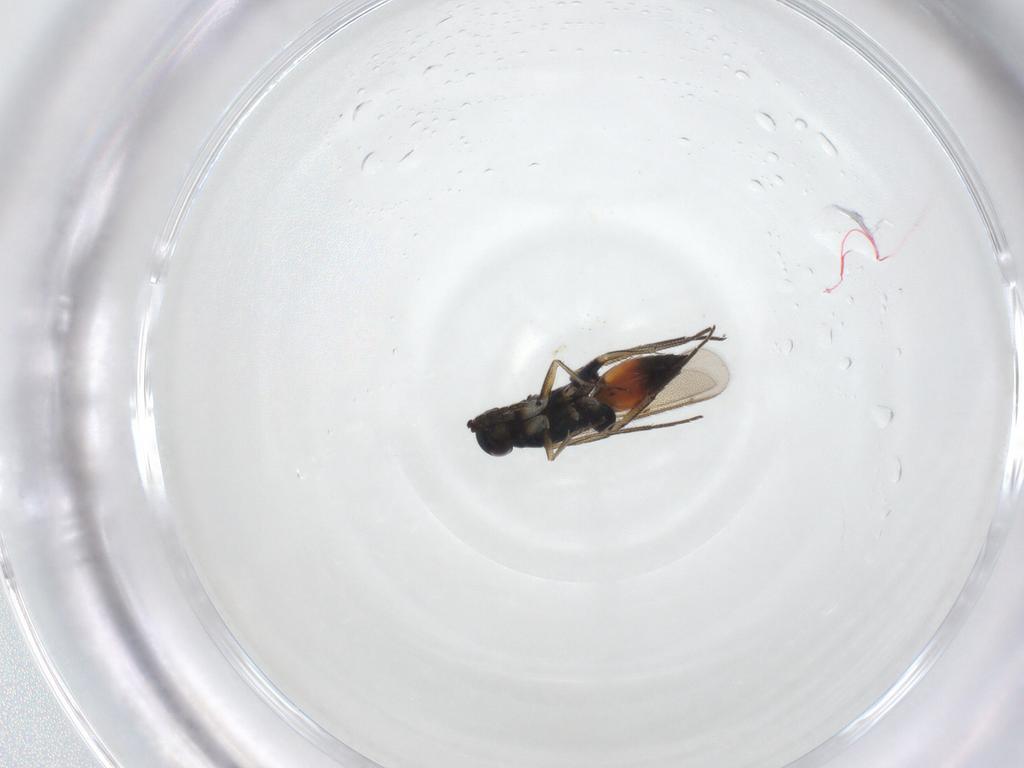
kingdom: Animalia
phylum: Arthropoda
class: Insecta
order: Hymenoptera
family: Eulophidae
